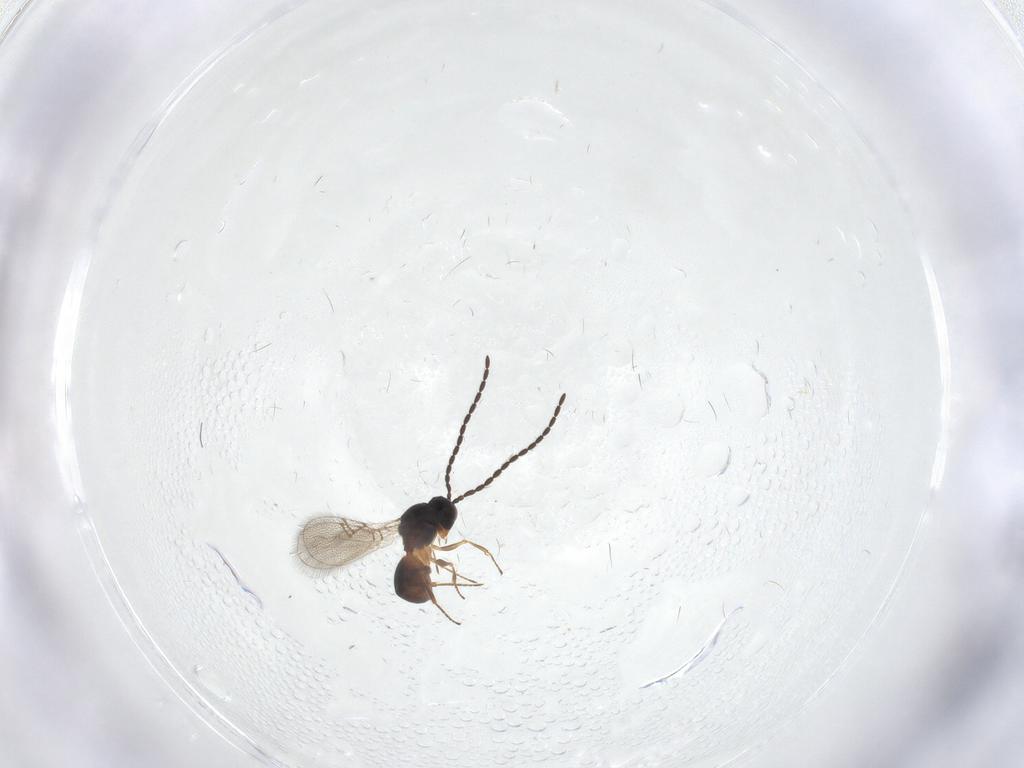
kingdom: Animalia
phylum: Arthropoda
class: Insecta
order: Hymenoptera
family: Figitidae
